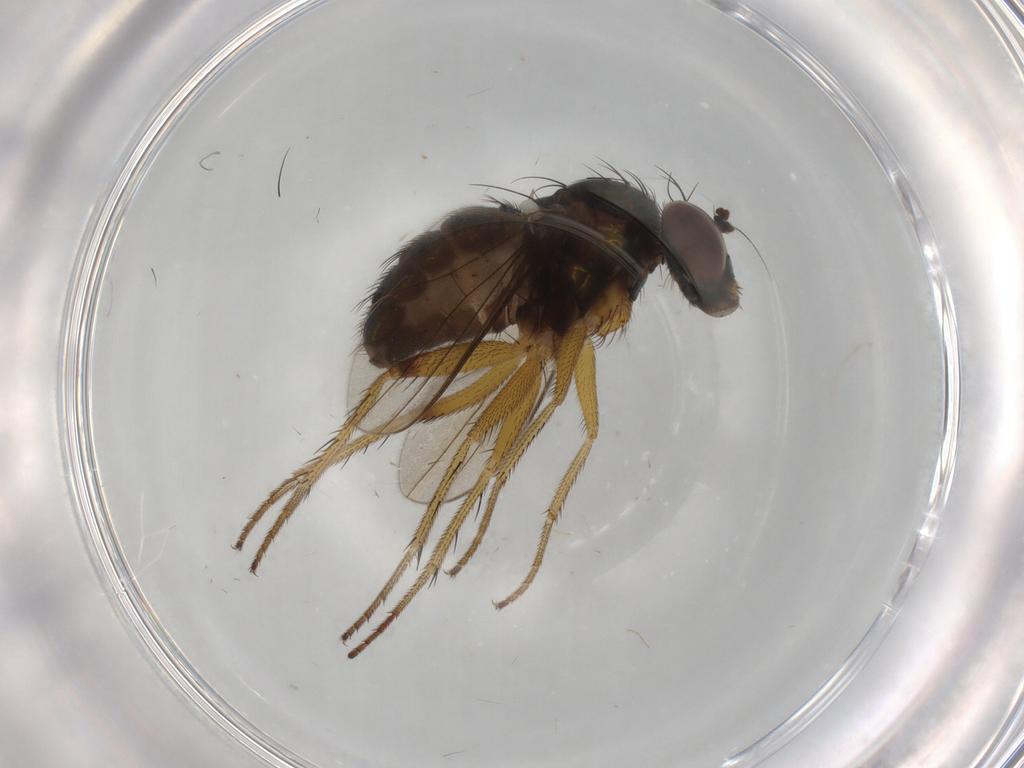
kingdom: Animalia
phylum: Arthropoda
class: Insecta
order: Diptera
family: Dolichopodidae
